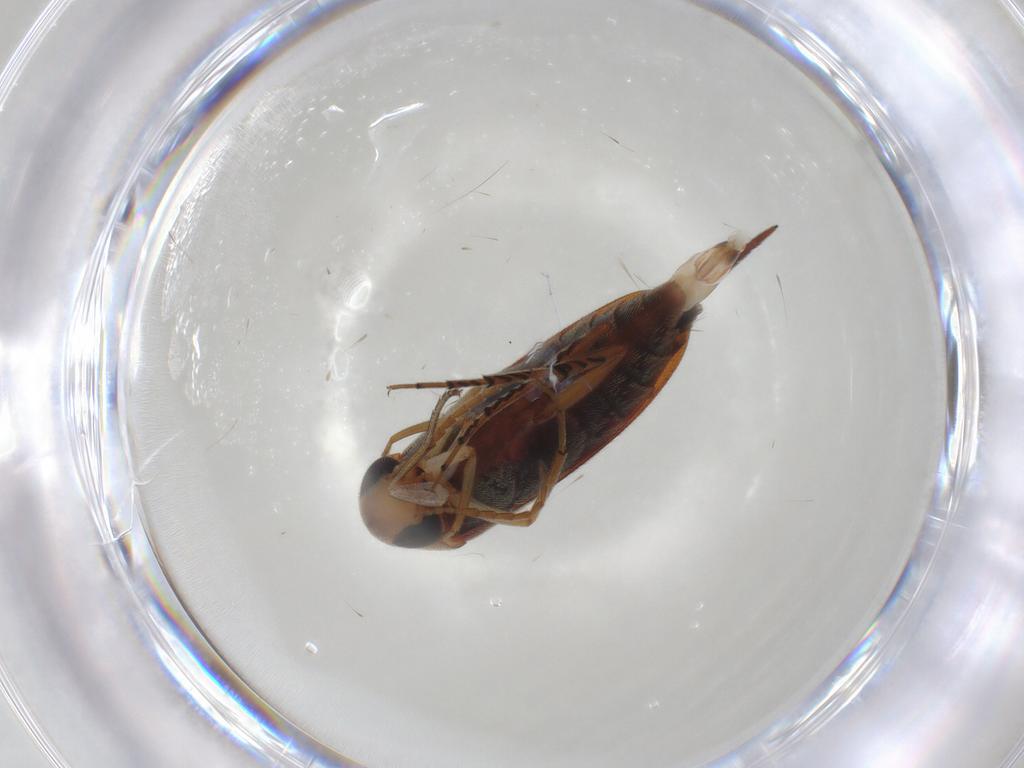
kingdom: Animalia
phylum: Arthropoda
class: Insecta
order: Coleoptera
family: Mordellidae
